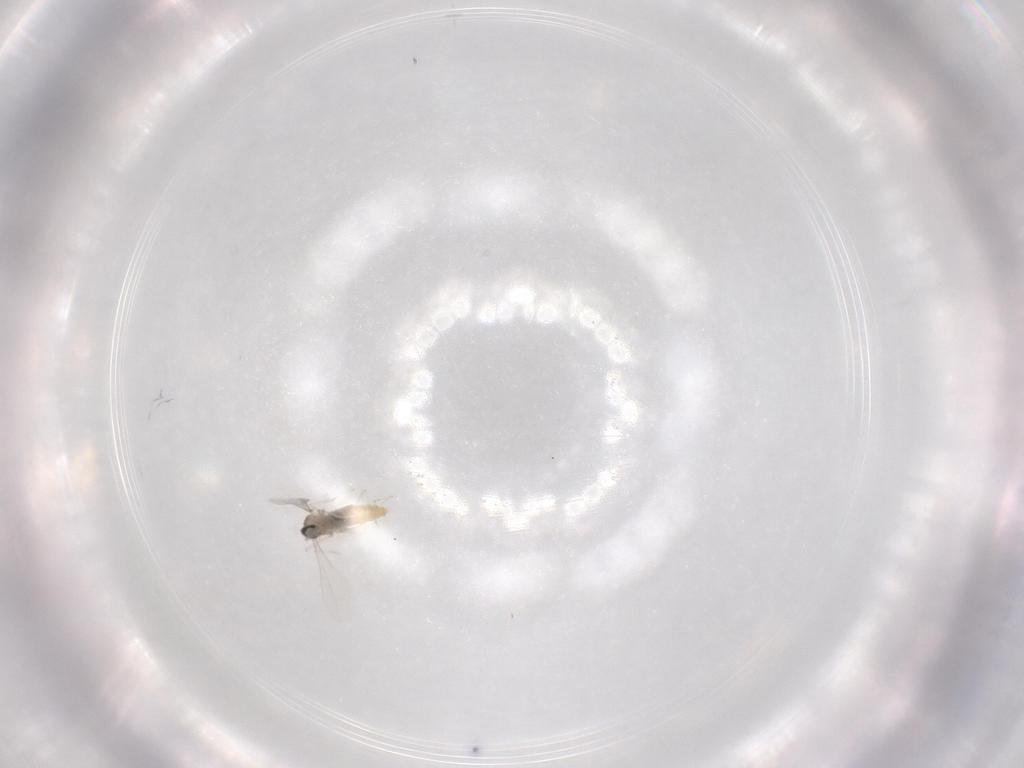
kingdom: Animalia
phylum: Arthropoda
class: Insecta
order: Diptera
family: Cecidomyiidae
